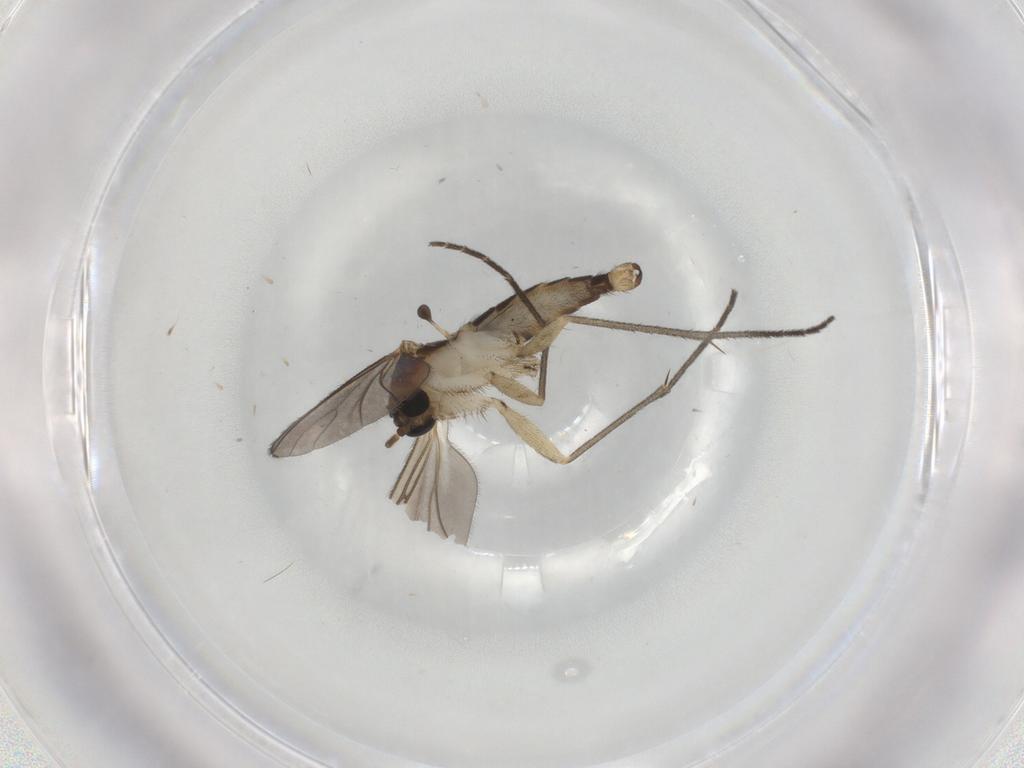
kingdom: Animalia
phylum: Arthropoda
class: Insecta
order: Diptera
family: Sciaridae
